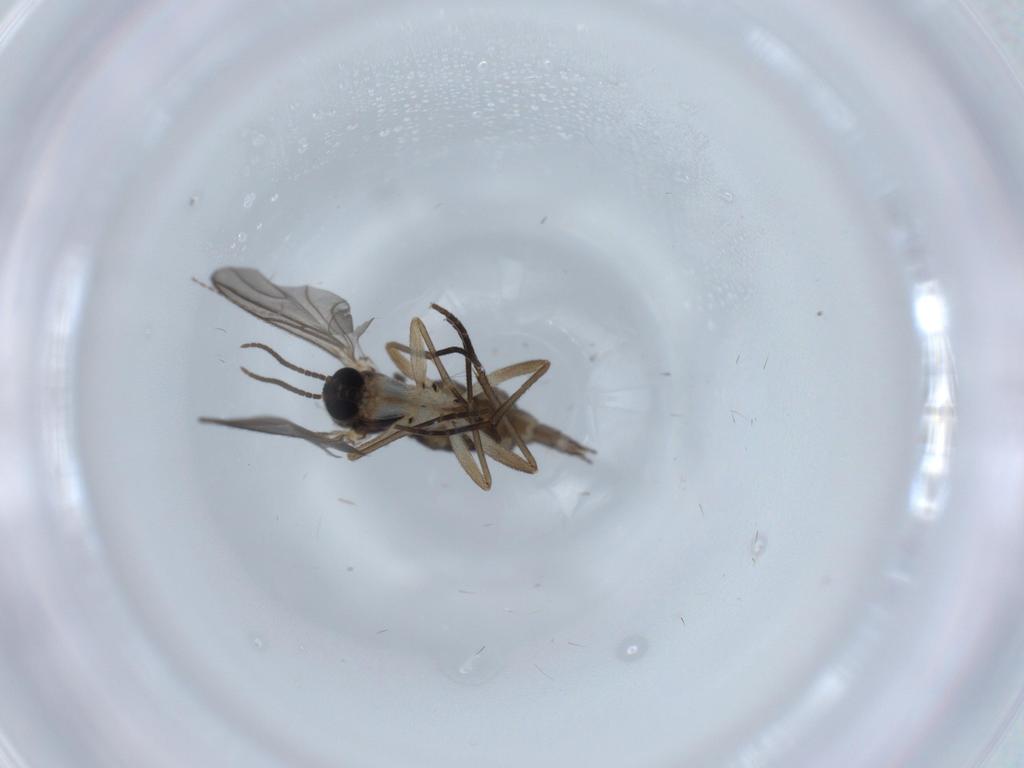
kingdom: Animalia
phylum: Arthropoda
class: Insecta
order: Diptera
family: Sciaridae
